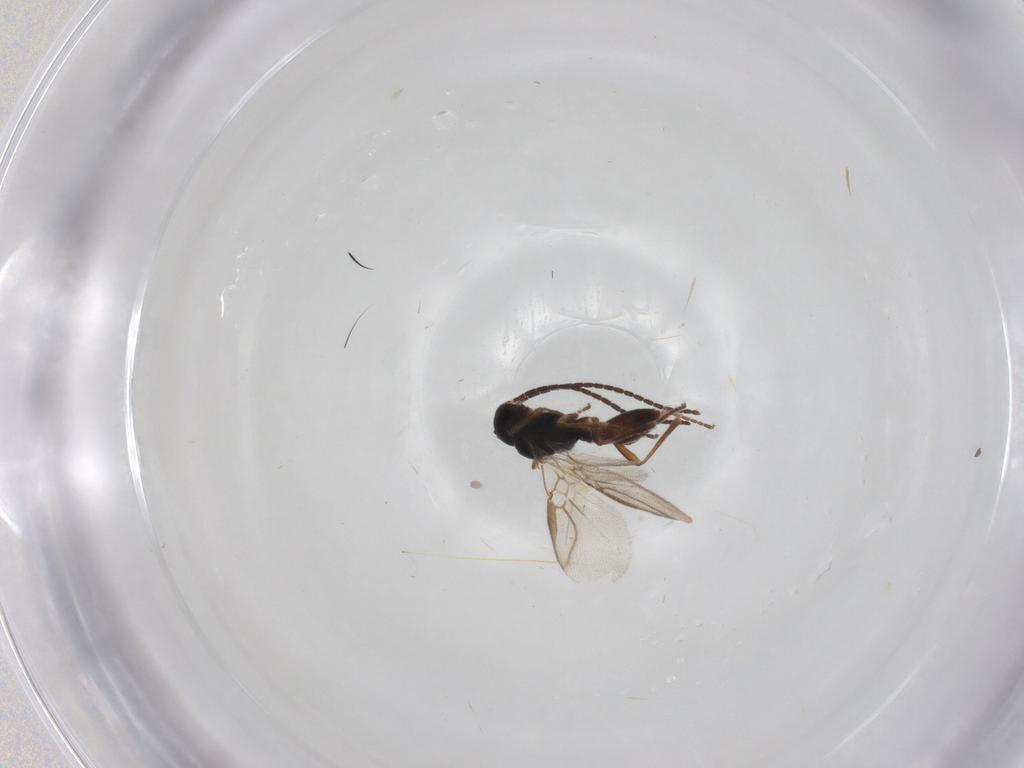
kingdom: Animalia
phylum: Arthropoda
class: Insecta
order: Hymenoptera
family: Braconidae
